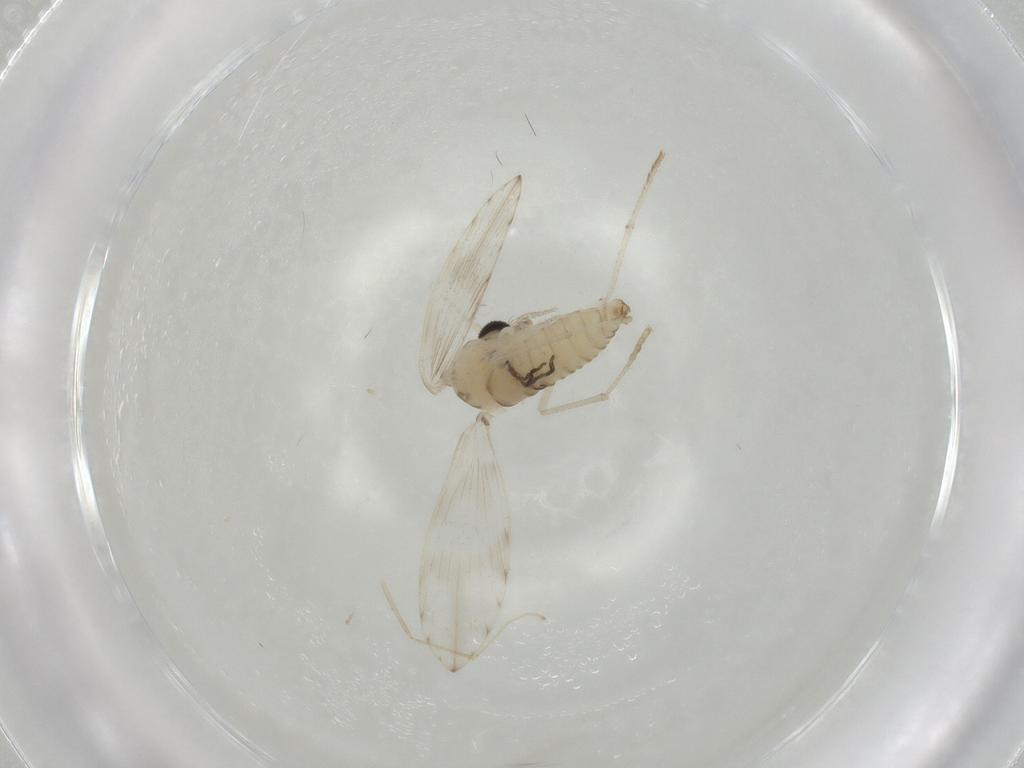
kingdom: Animalia
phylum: Arthropoda
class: Insecta
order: Diptera
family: Psychodidae
